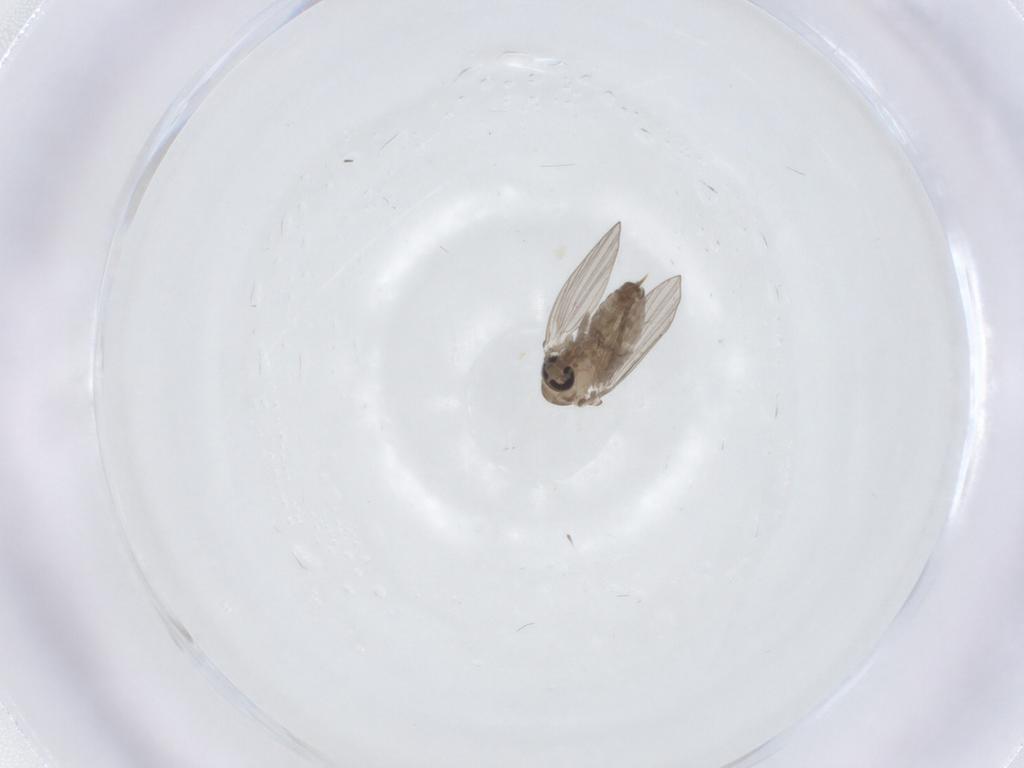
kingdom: Animalia
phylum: Arthropoda
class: Insecta
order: Diptera
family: Psychodidae
